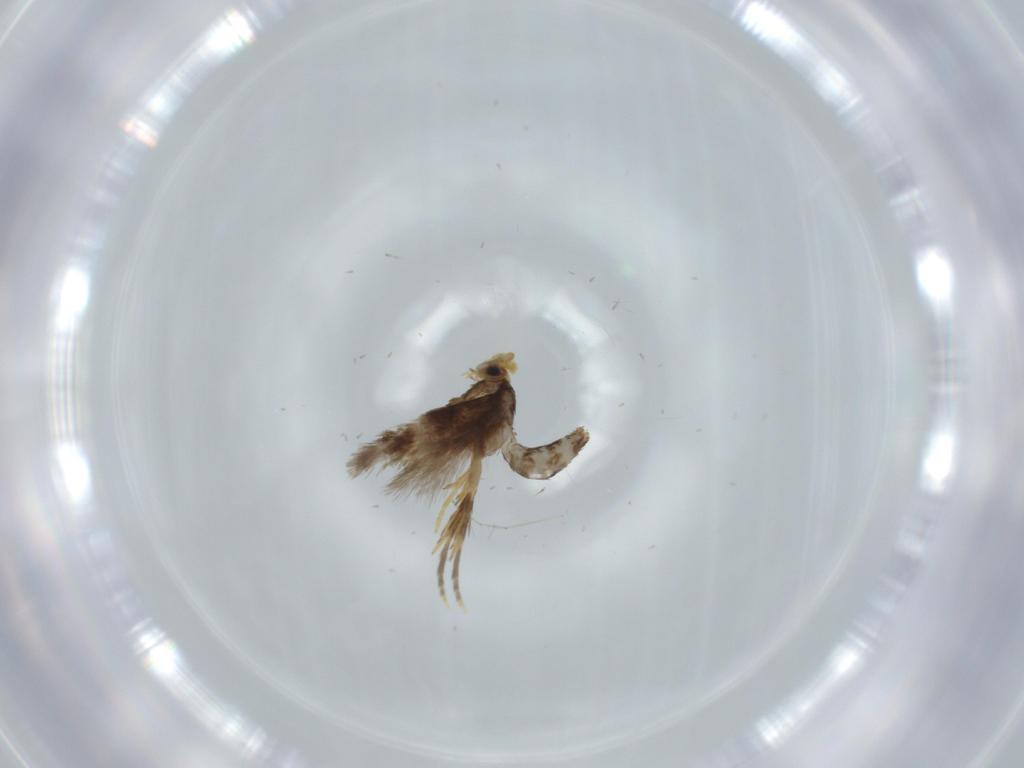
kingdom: Animalia
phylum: Arthropoda
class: Insecta
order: Lepidoptera
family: Nepticulidae
